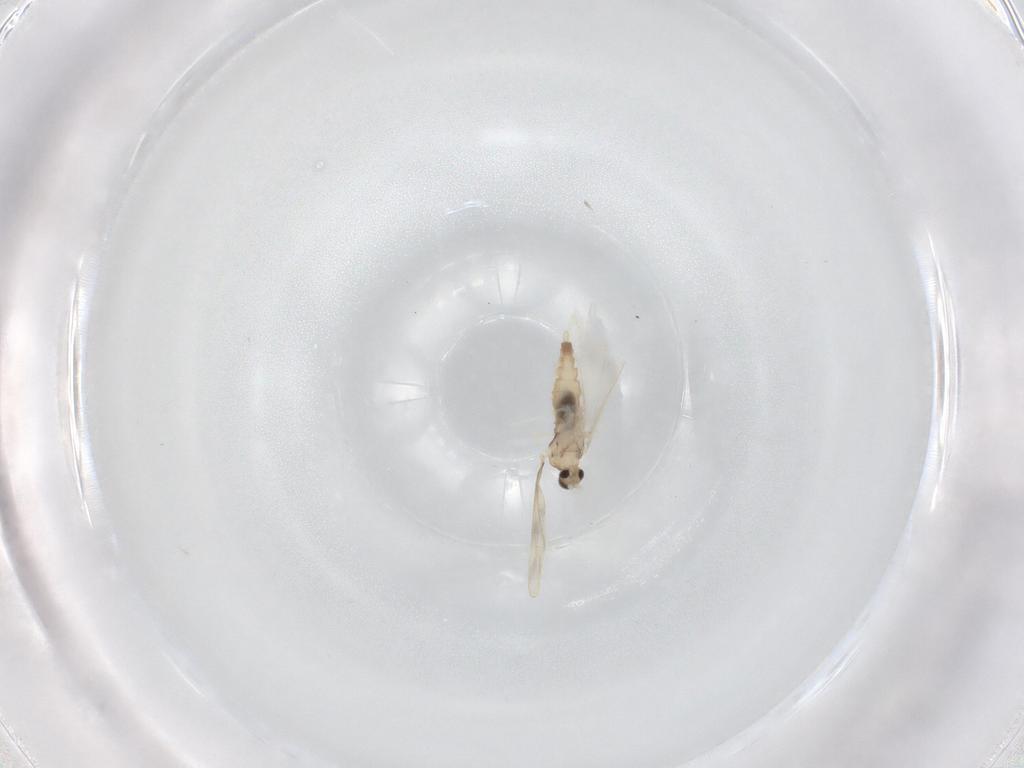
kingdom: Animalia
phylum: Arthropoda
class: Insecta
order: Diptera
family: Cecidomyiidae
